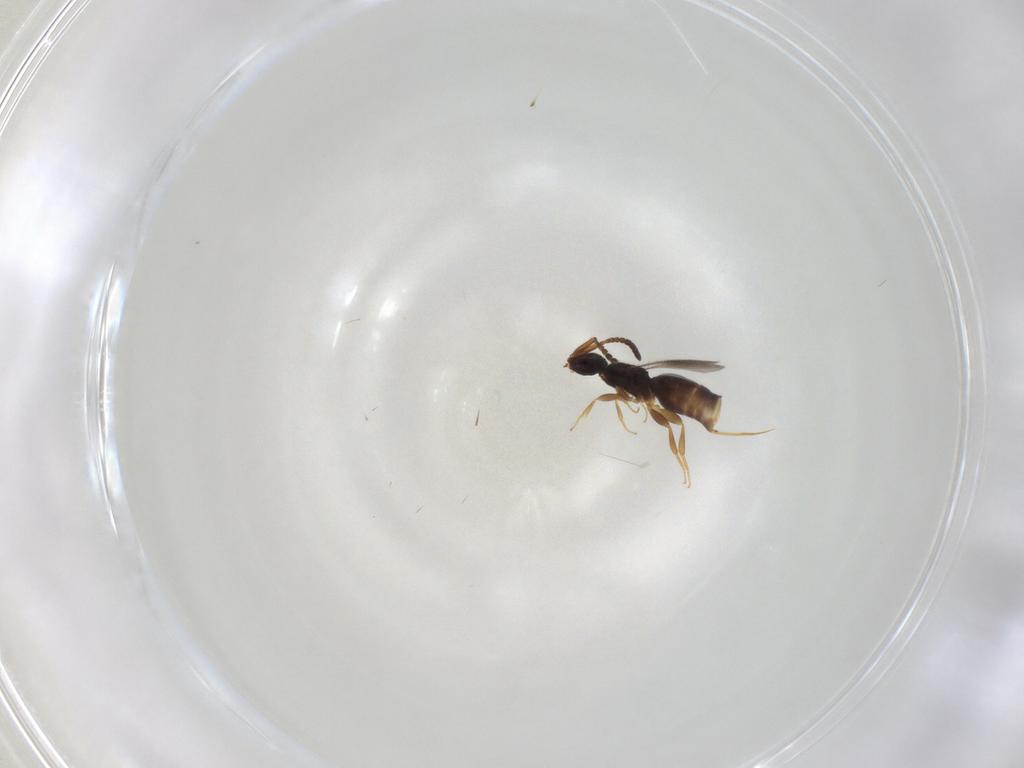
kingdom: Animalia
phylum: Arthropoda
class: Insecta
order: Hymenoptera
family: Ceraphronidae
